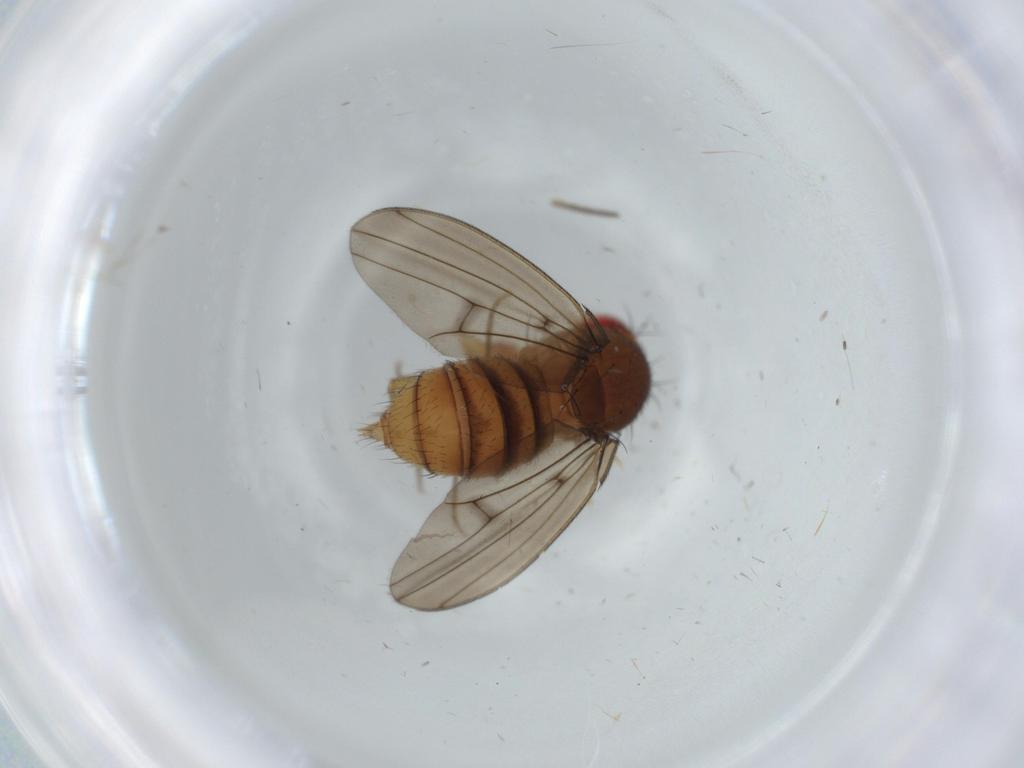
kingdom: Animalia
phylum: Arthropoda
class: Insecta
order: Diptera
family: Drosophilidae
